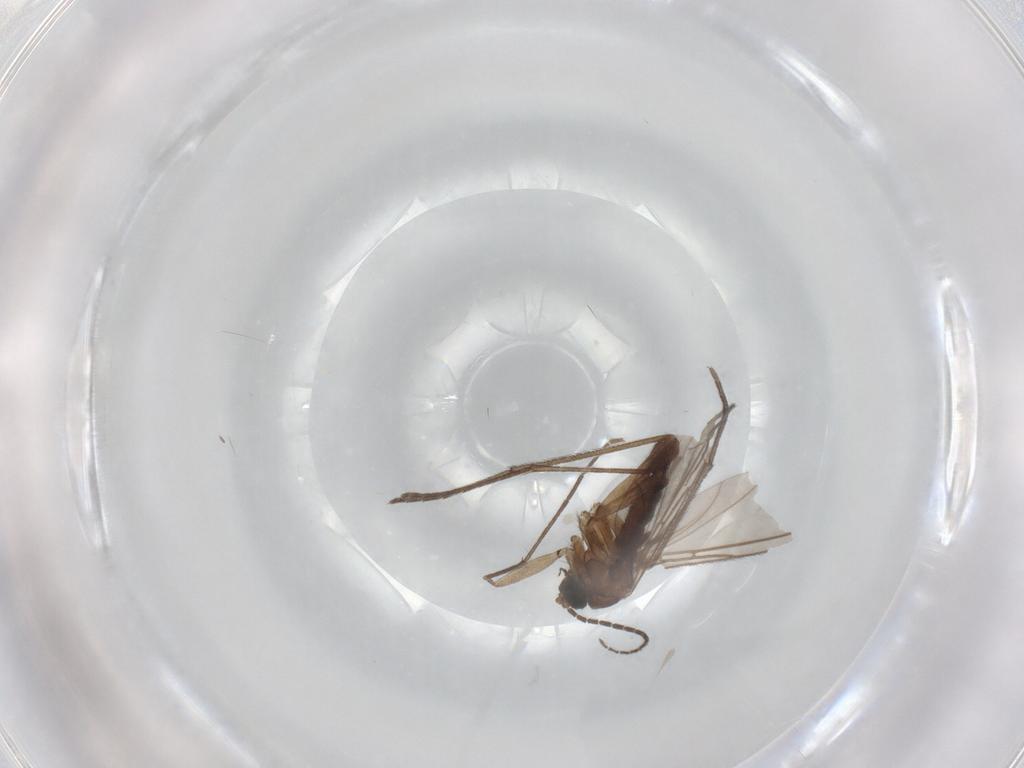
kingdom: Animalia
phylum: Arthropoda
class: Insecta
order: Diptera
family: Sciaridae
